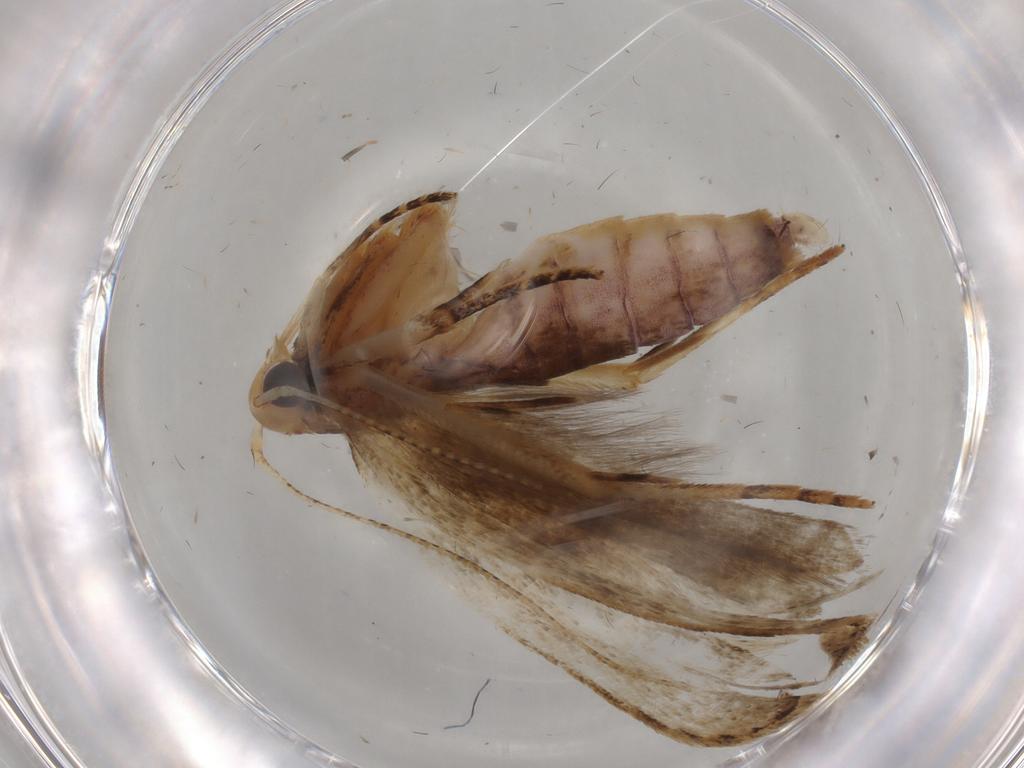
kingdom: Animalia
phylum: Arthropoda
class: Insecta
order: Lepidoptera
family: Gelechiidae
